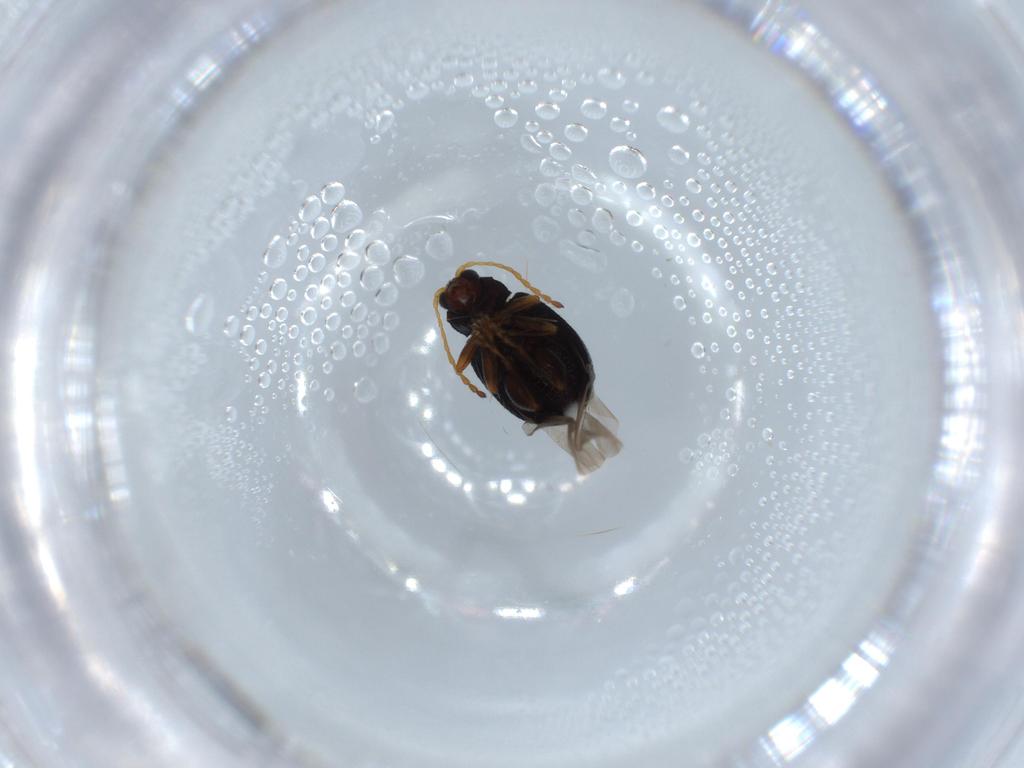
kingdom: Animalia
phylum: Arthropoda
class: Insecta
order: Coleoptera
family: Chrysomelidae
